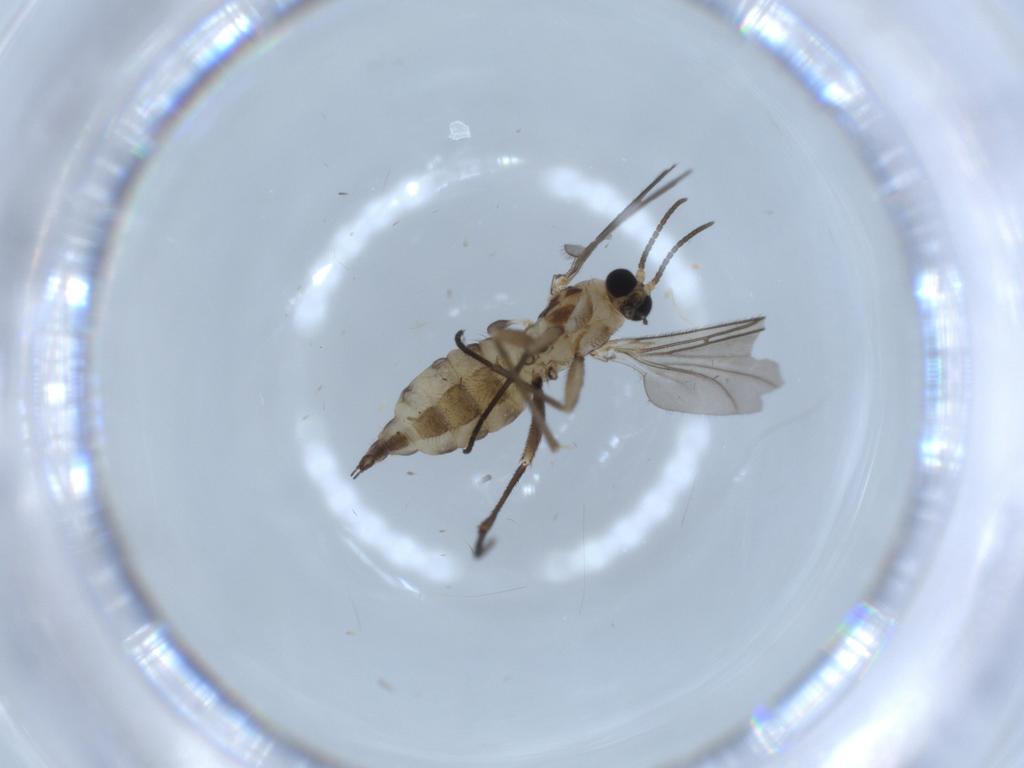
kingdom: Animalia
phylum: Arthropoda
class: Insecta
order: Diptera
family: Sciaridae
